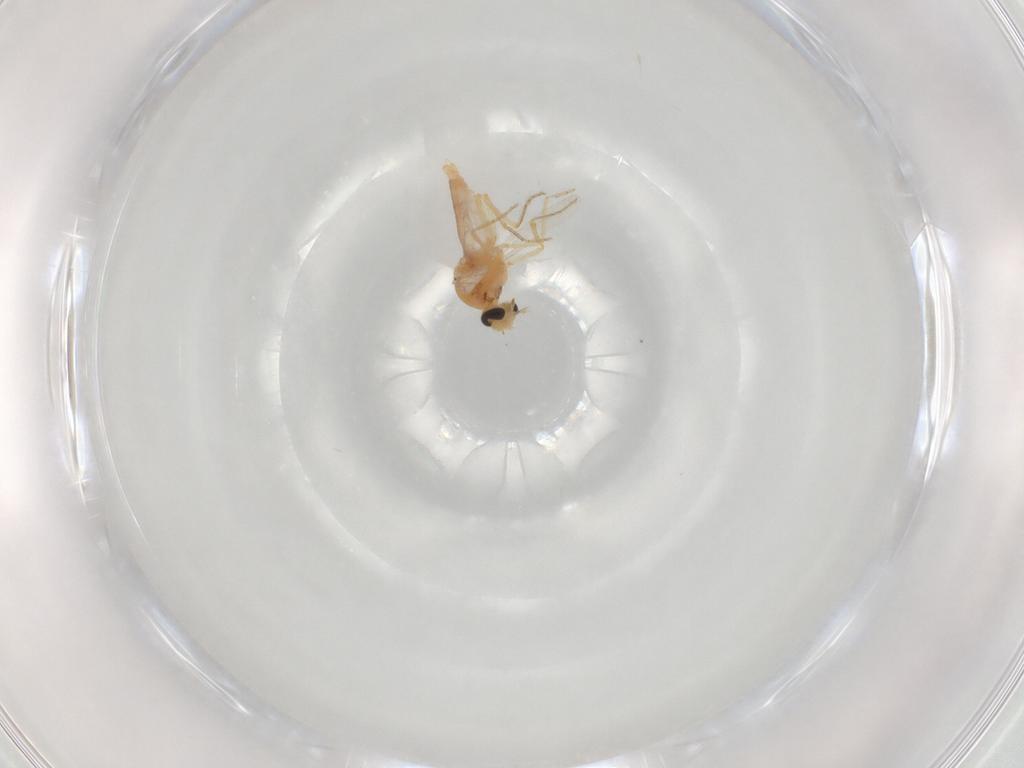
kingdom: Animalia
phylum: Arthropoda
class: Insecta
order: Diptera
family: Ceratopogonidae
